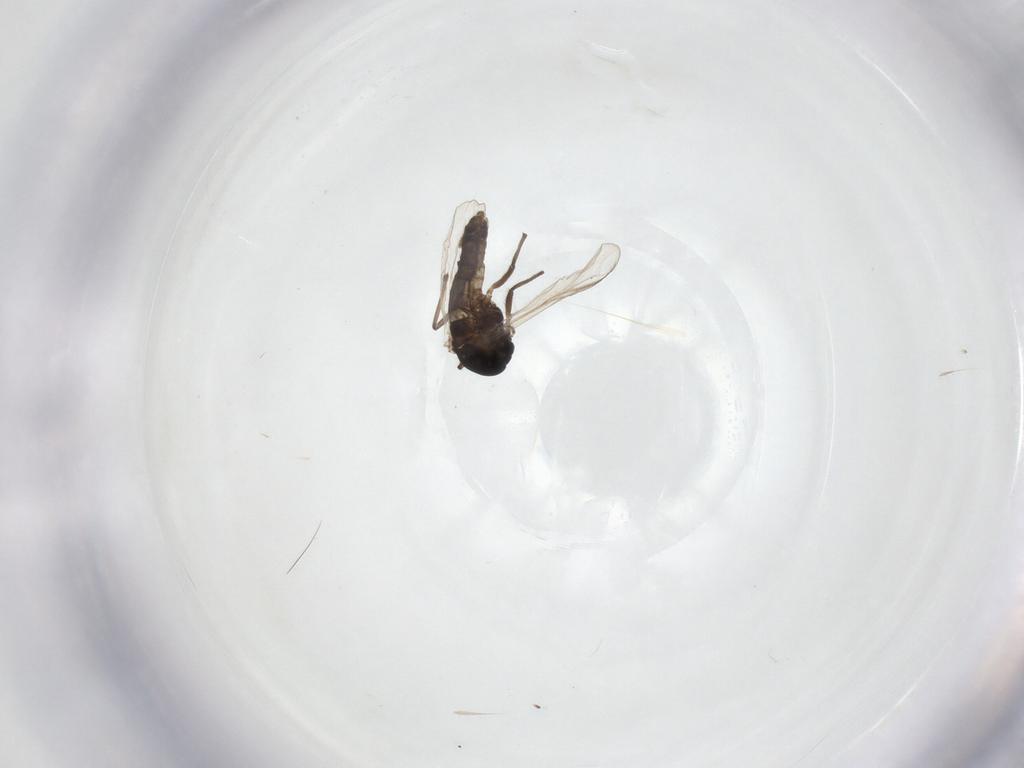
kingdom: Animalia
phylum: Arthropoda
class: Insecta
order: Diptera
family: Chironomidae
